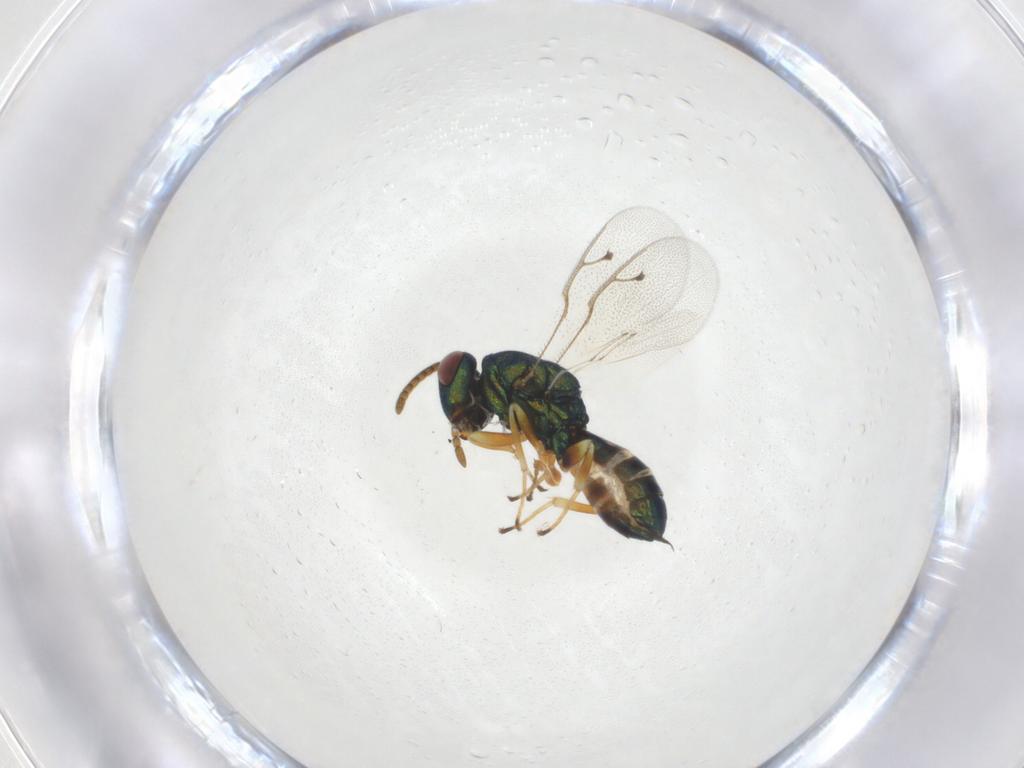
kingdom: Animalia
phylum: Arthropoda
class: Insecta
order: Hymenoptera
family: Pteromalidae
